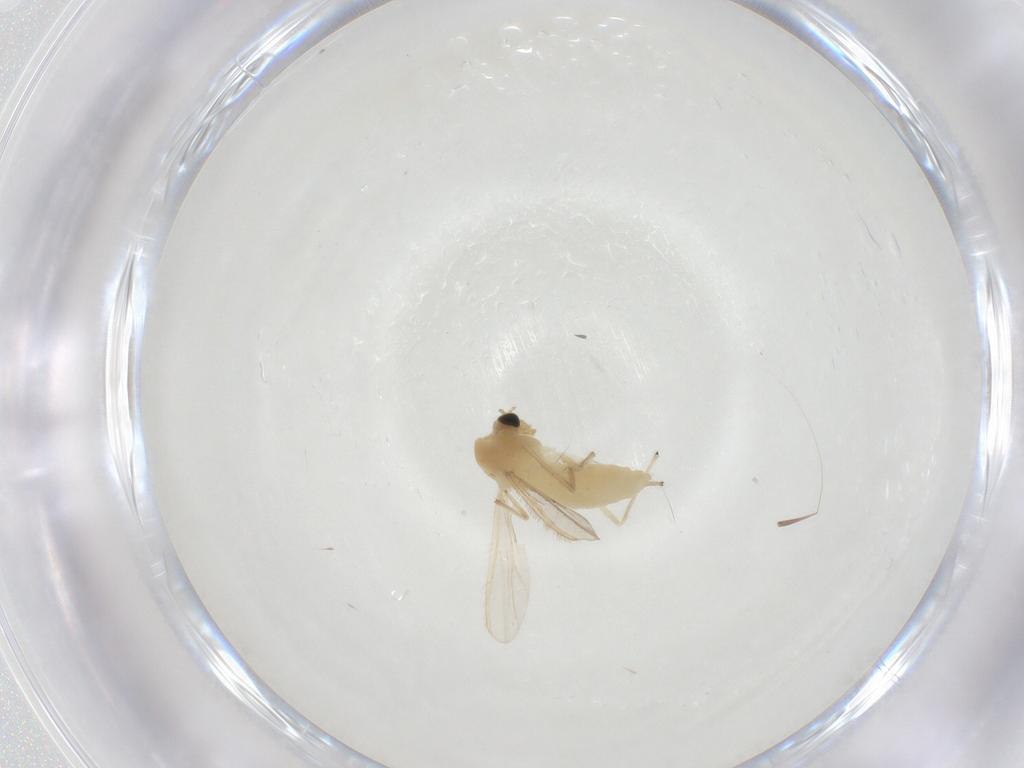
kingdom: Animalia
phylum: Arthropoda
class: Insecta
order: Diptera
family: Chironomidae
